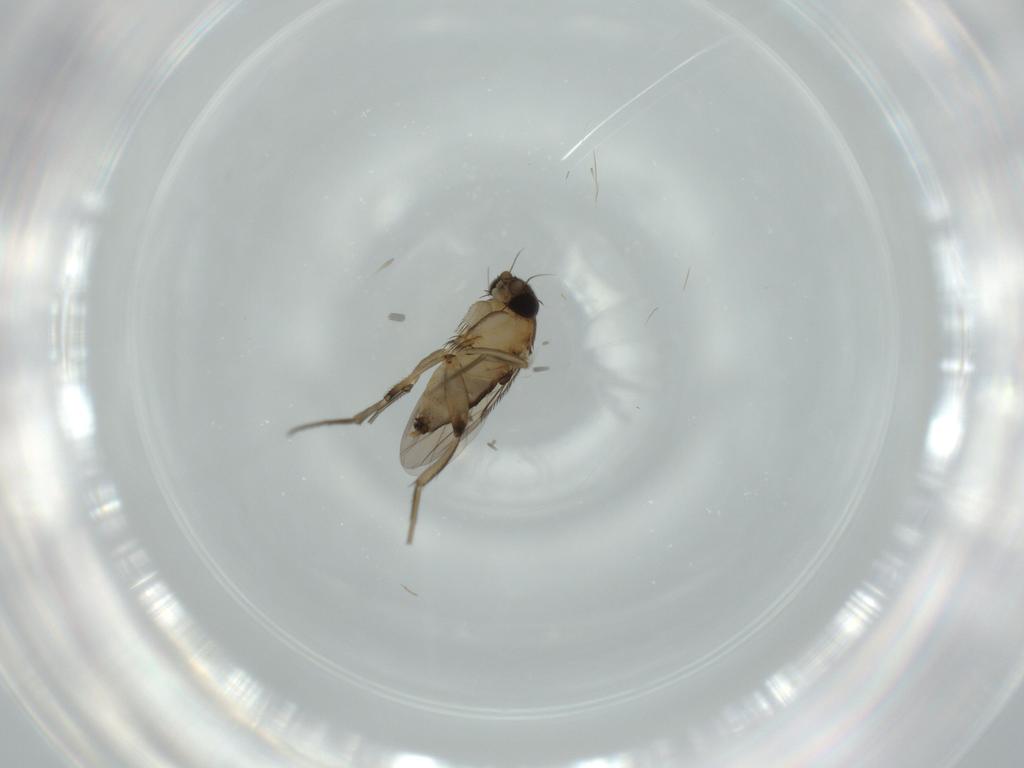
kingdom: Animalia
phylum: Arthropoda
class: Insecta
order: Diptera
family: Phoridae
